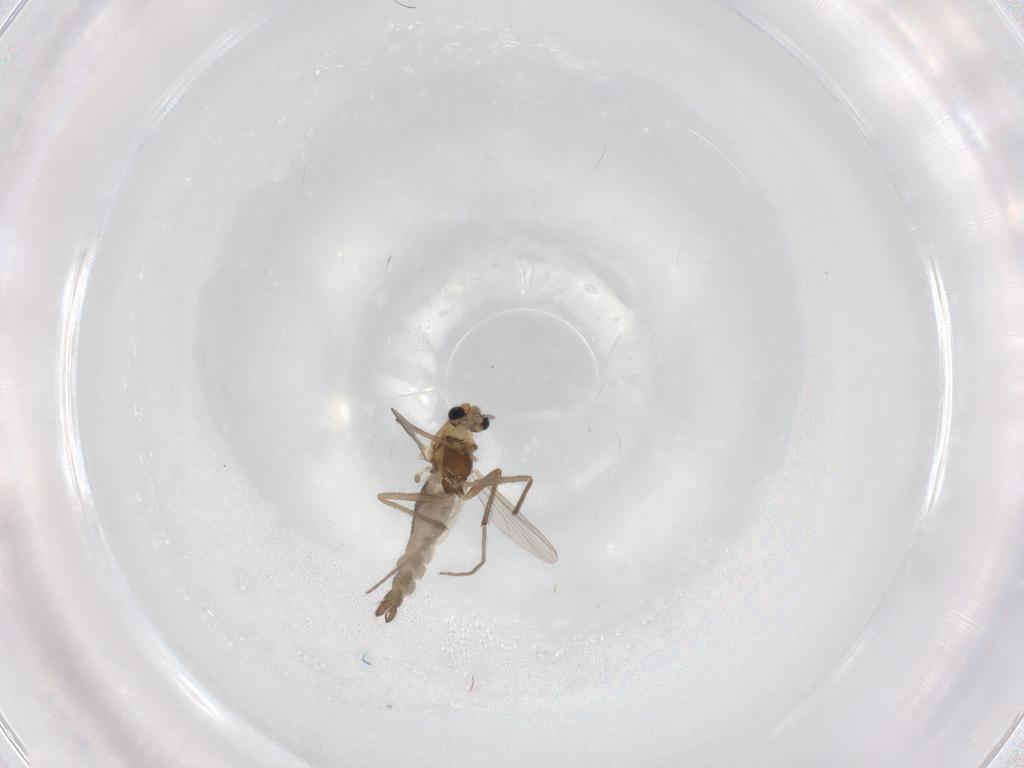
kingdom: Animalia
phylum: Arthropoda
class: Insecta
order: Diptera
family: Chironomidae
